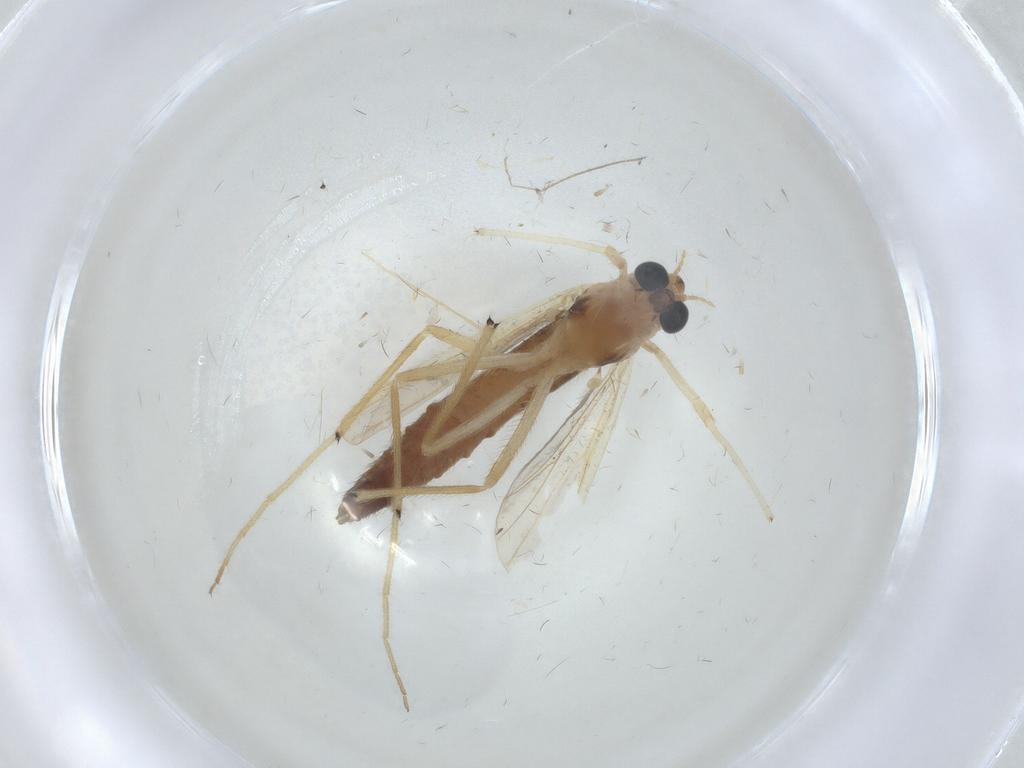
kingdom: Animalia
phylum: Arthropoda
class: Insecta
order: Diptera
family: Chironomidae
